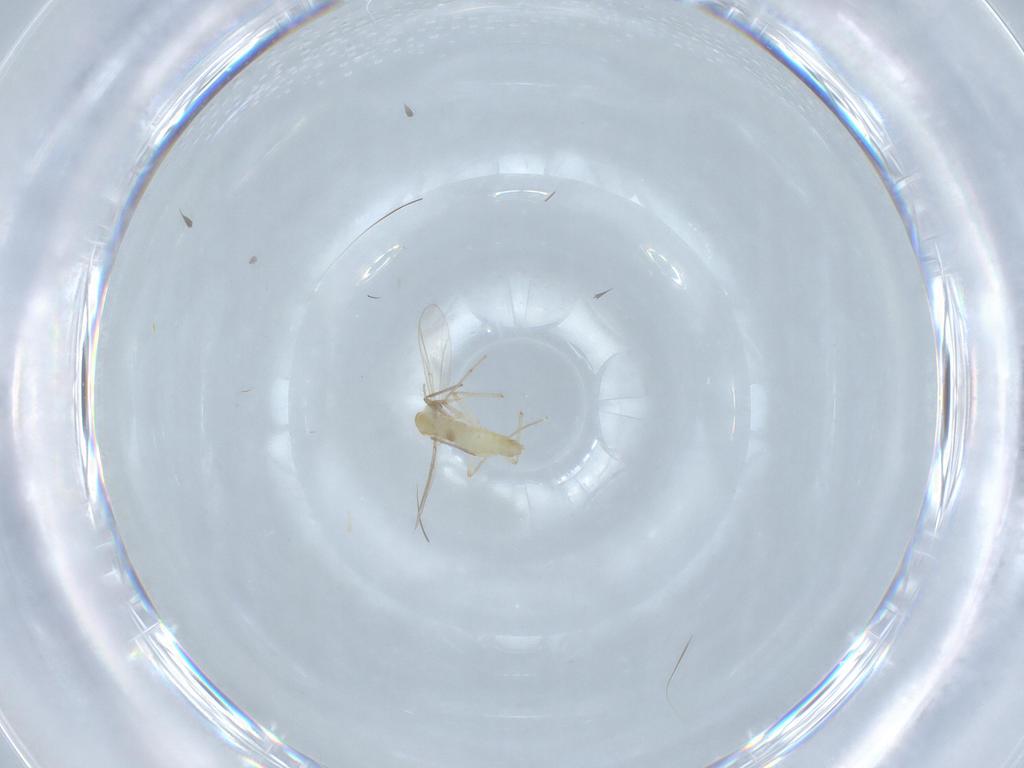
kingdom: Animalia
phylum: Arthropoda
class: Insecta
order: Diptera
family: Chironomidae
